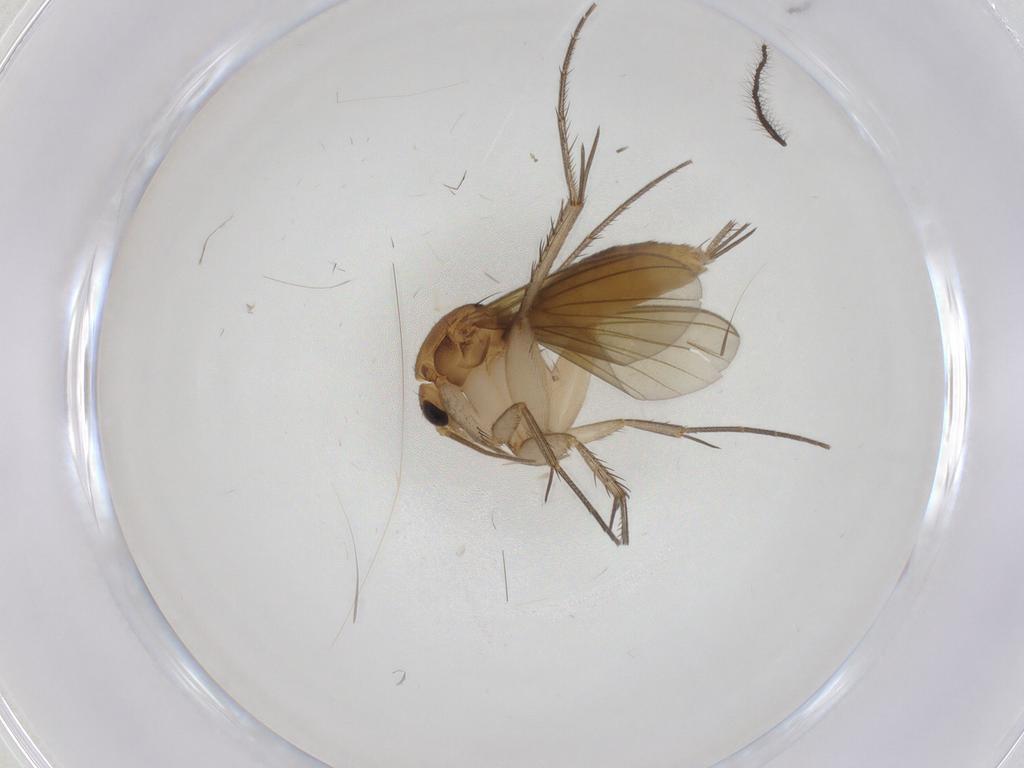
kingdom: Animalia
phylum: Arthropoda
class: Insecta
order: Diptera
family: Mycetophilidae
